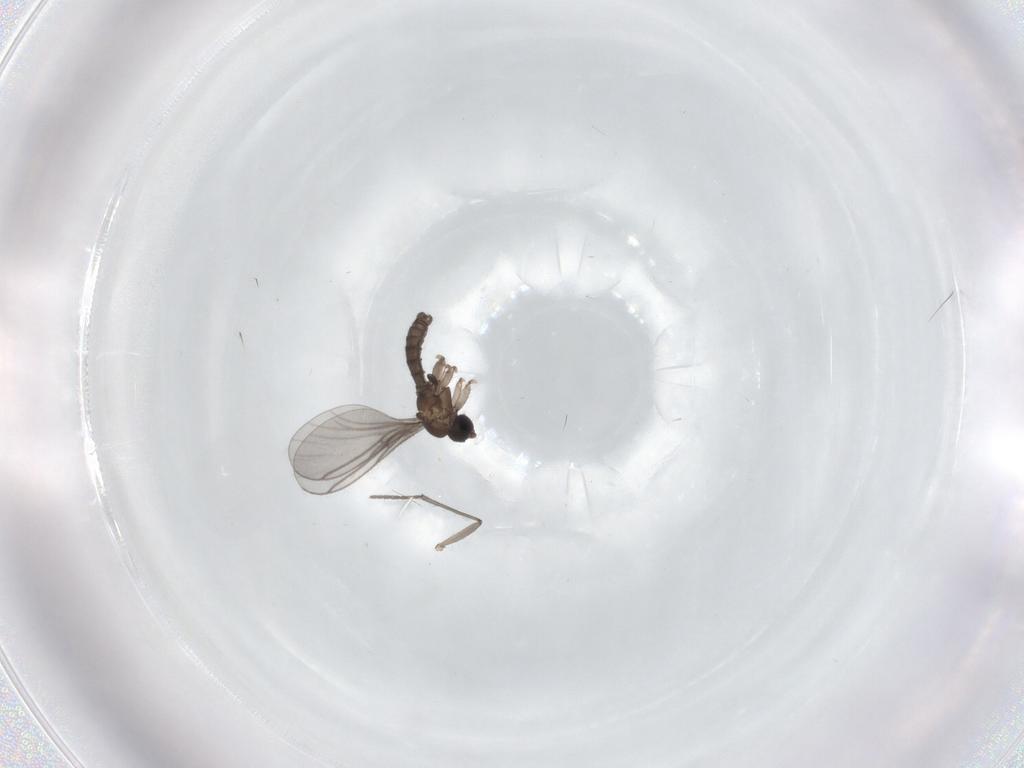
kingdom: Animalia
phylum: Arthropoda
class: Insecta
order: Diptera
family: Sciaridae
